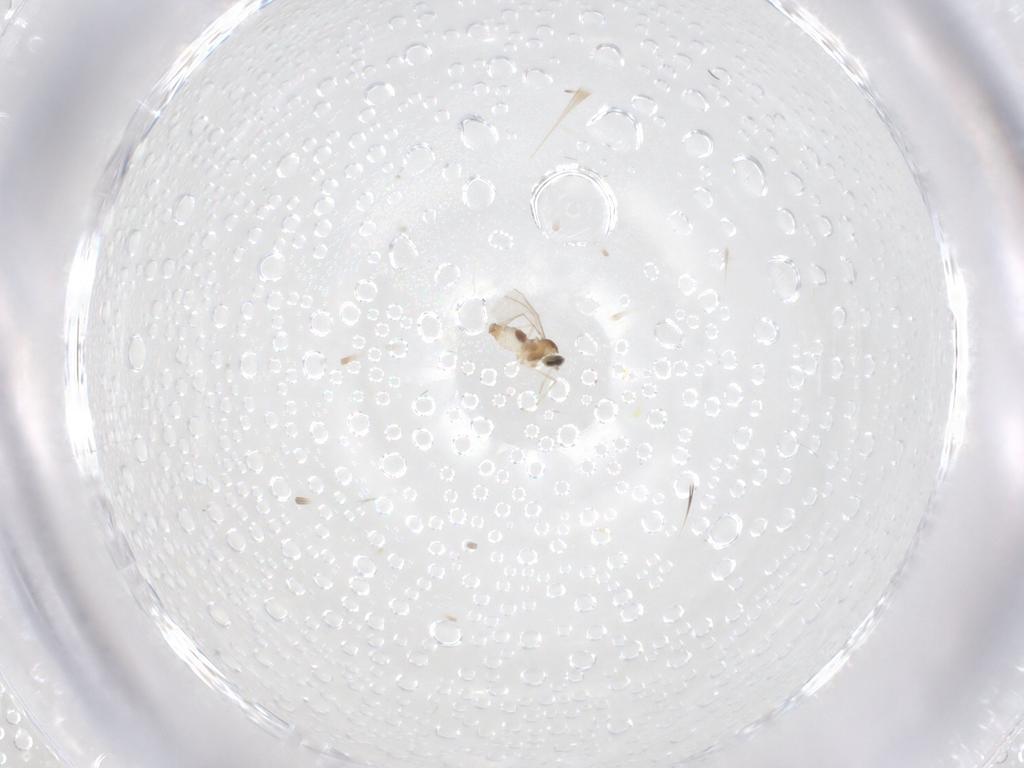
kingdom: Animalia
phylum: Arthropoda
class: Insecta
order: Diptera
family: Cecidomyiidae
